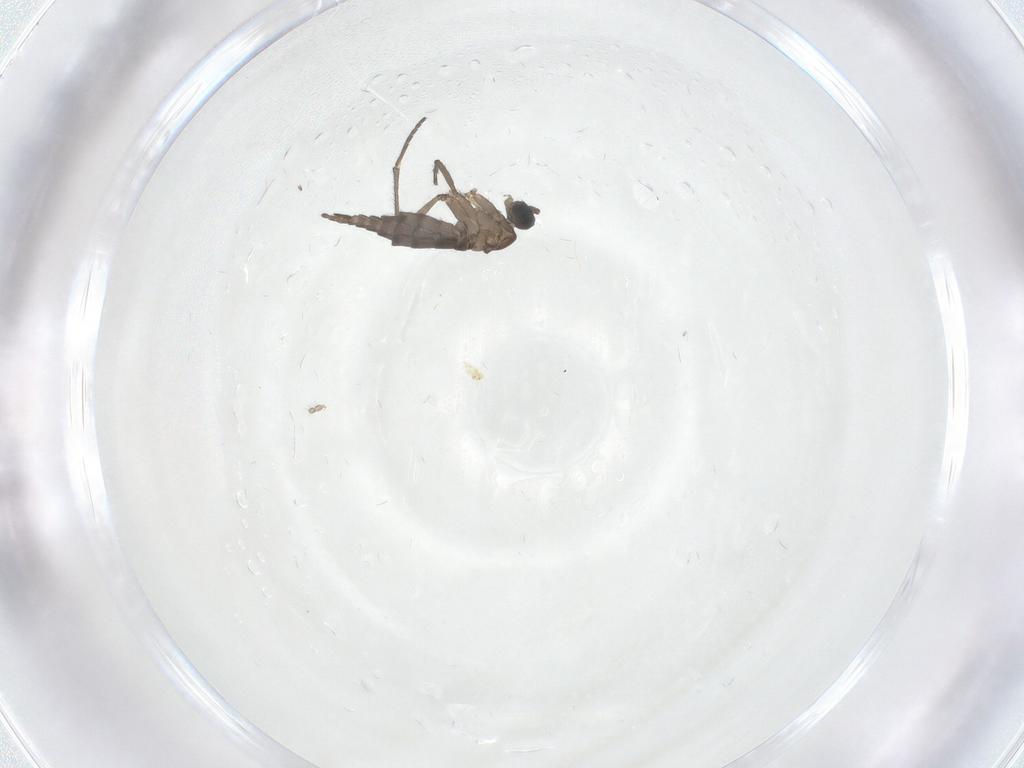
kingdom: Animalia
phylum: Arthropoda
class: Insecta
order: Diptera
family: Sciaridae
